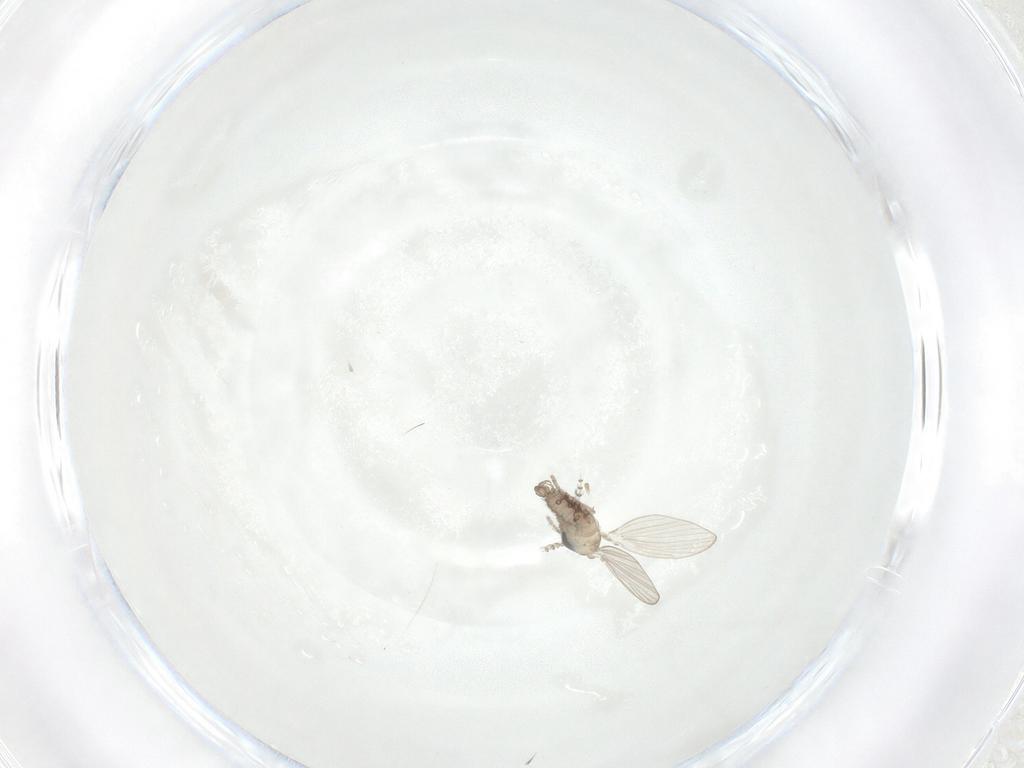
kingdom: Animalia
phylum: Arthropoda
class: Insecta
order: Diptera
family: Psychodidae
